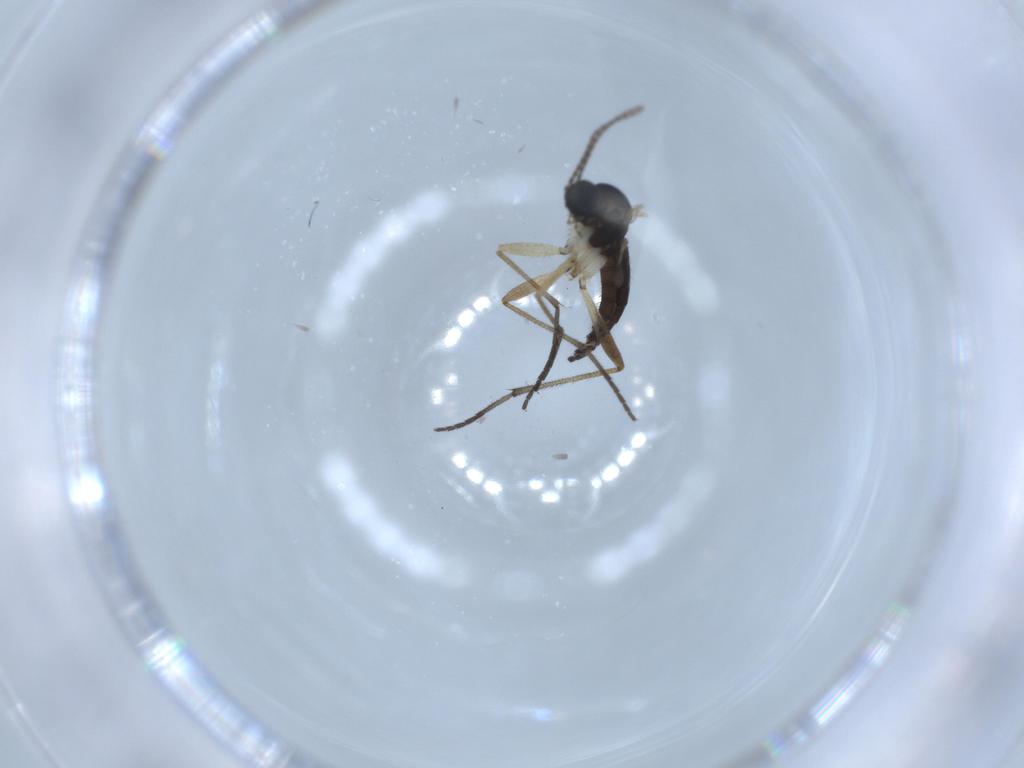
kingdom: Animalia
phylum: Arthropoda
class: Insecta
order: Diptera
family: Sciaridae
